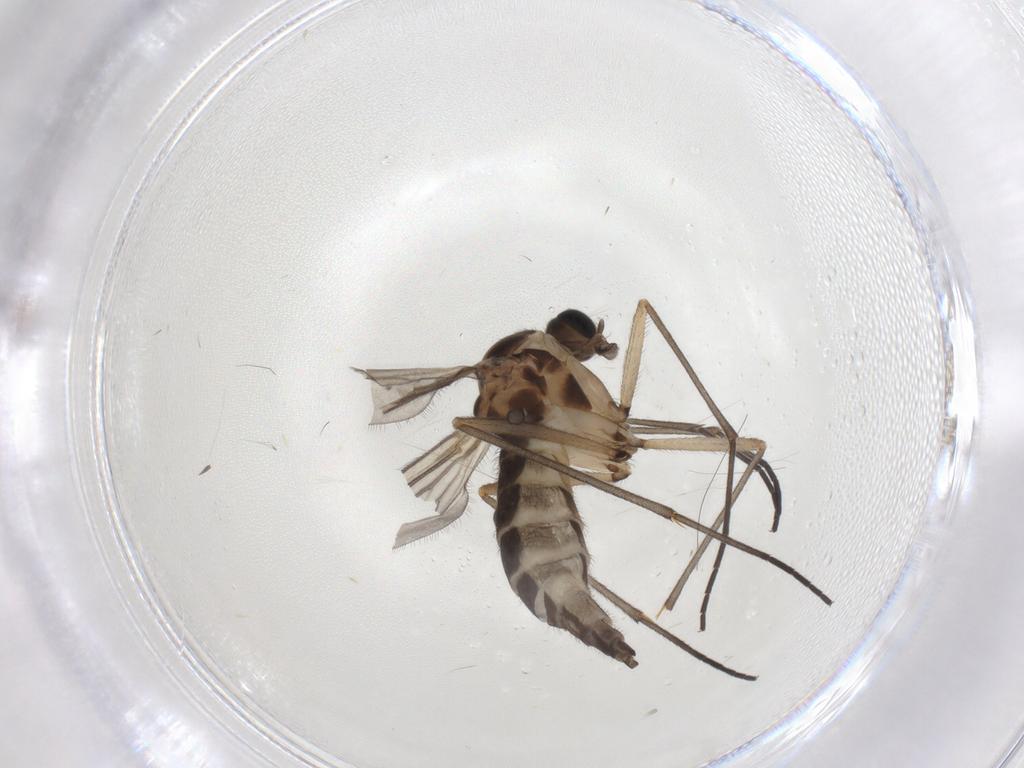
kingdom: Animalia
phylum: Arthropoda
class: Insecta
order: Diptera
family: Sciaridae
